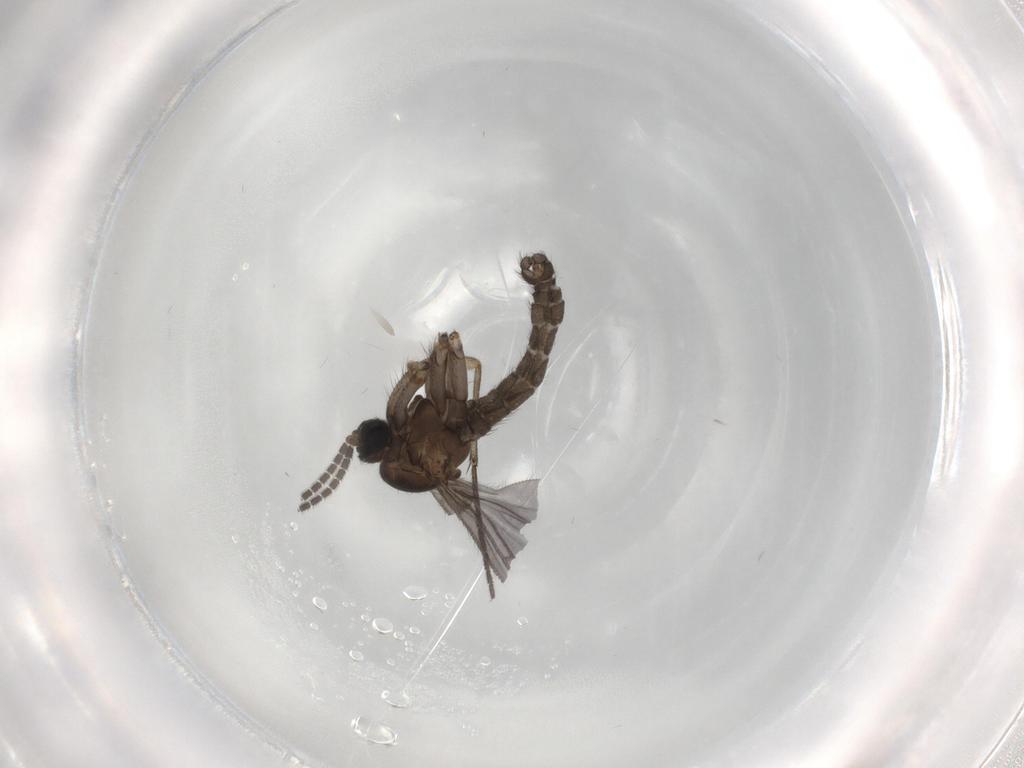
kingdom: Animalia
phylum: Arthropoda
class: Insecta
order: Diptera
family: Sciaridae
